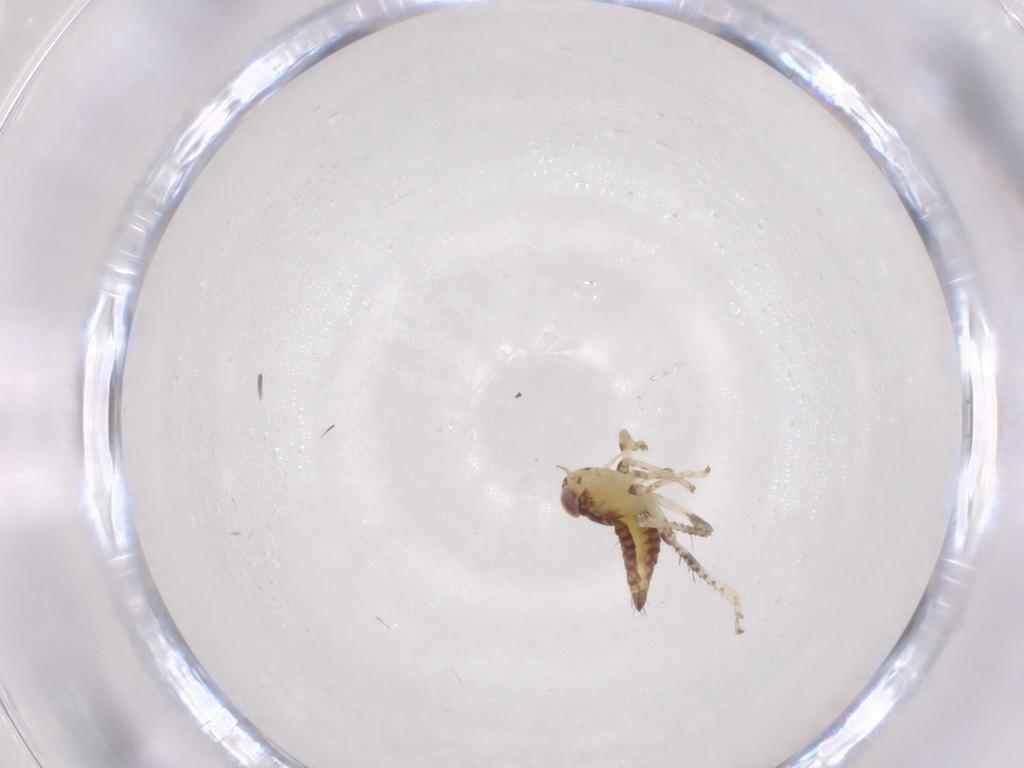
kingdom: Animalia
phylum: Arthropoda
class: Insecta
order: Hemiptera
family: Cicadellidae
